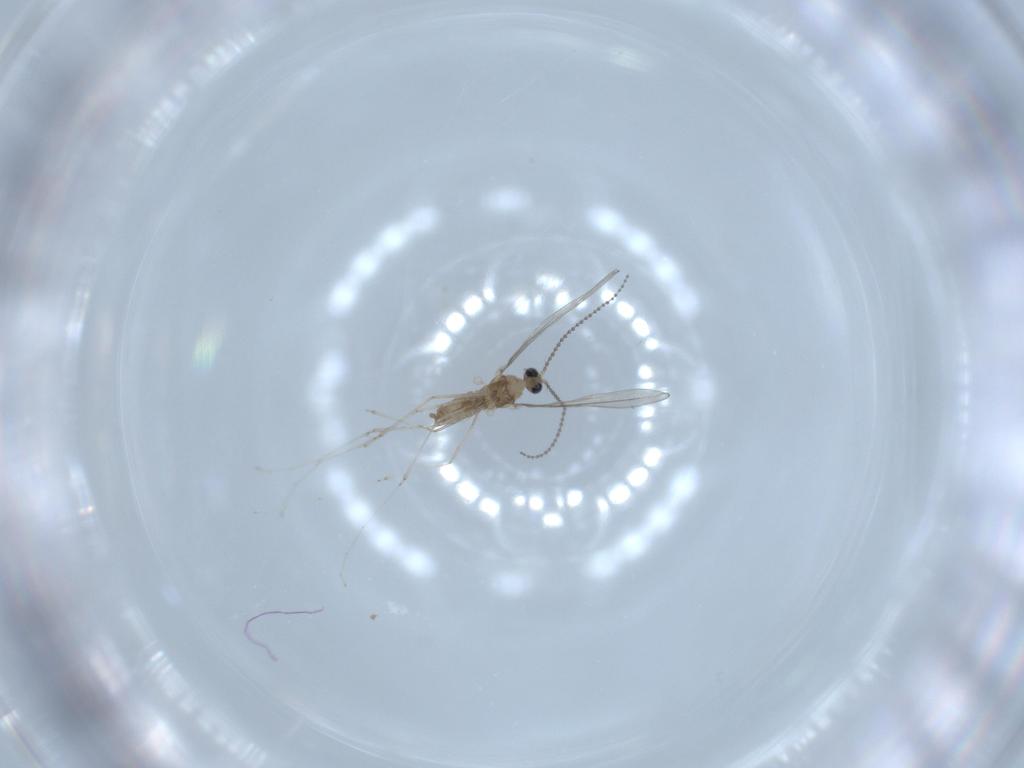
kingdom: Animalia
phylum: Arthropoda
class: Insecta
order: Diptera
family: Cecidomyiidae
